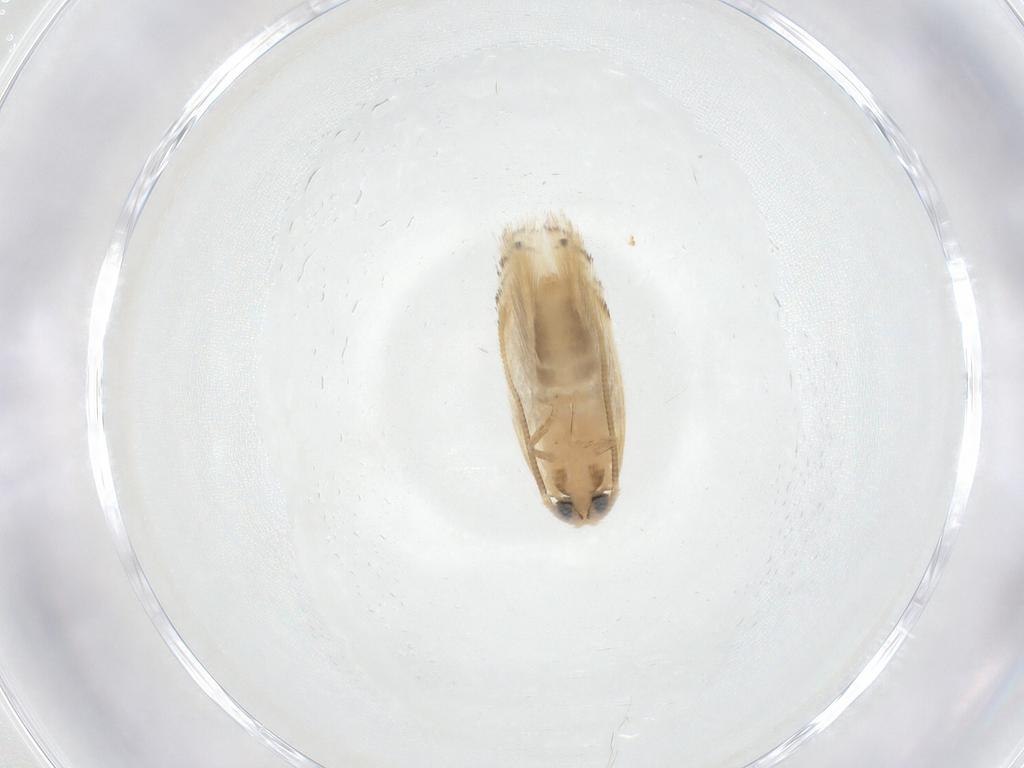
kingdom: Animalia
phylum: Arthropoda
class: Insecta
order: Lepidoptera
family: Opostegidae
